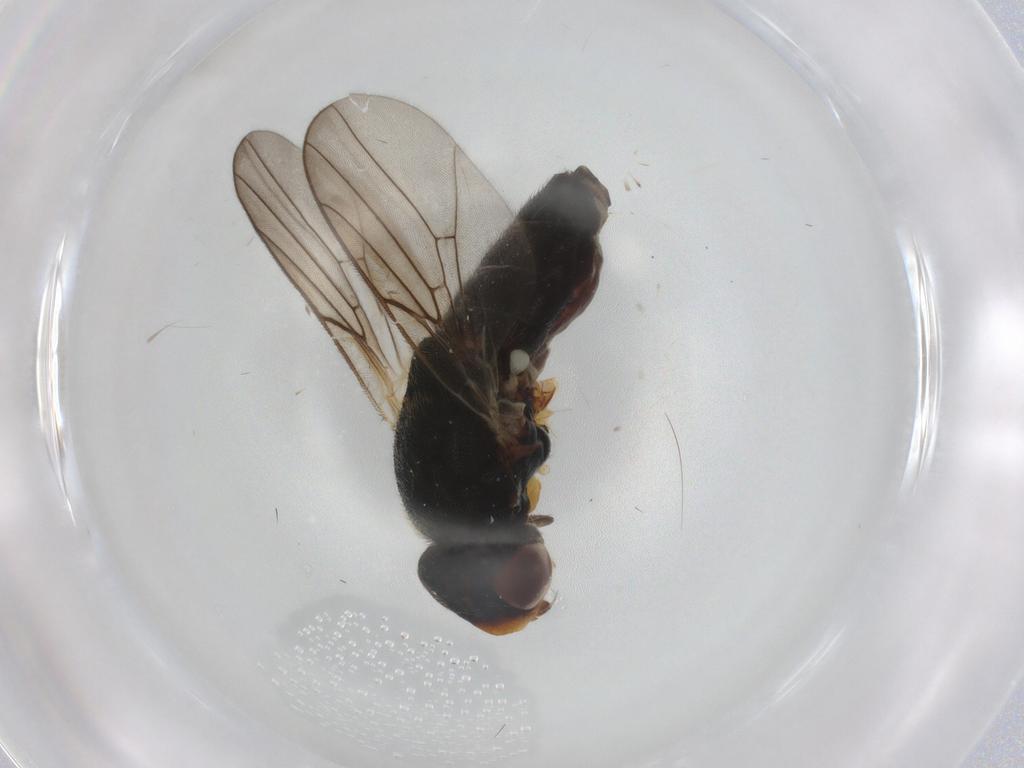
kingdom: Animalia
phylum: Arthropoda
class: Insecta
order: Diptera
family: Chloropidae
